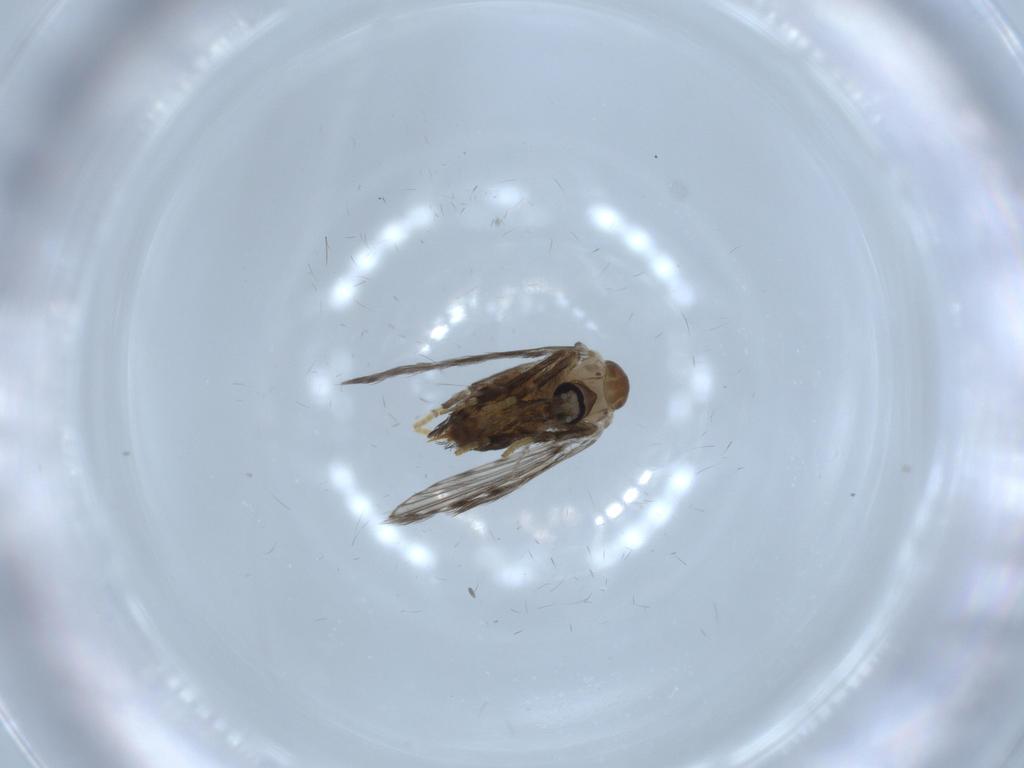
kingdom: Animalia
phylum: Arthropoda
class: Insecta
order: Diptera
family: Psychodidae
